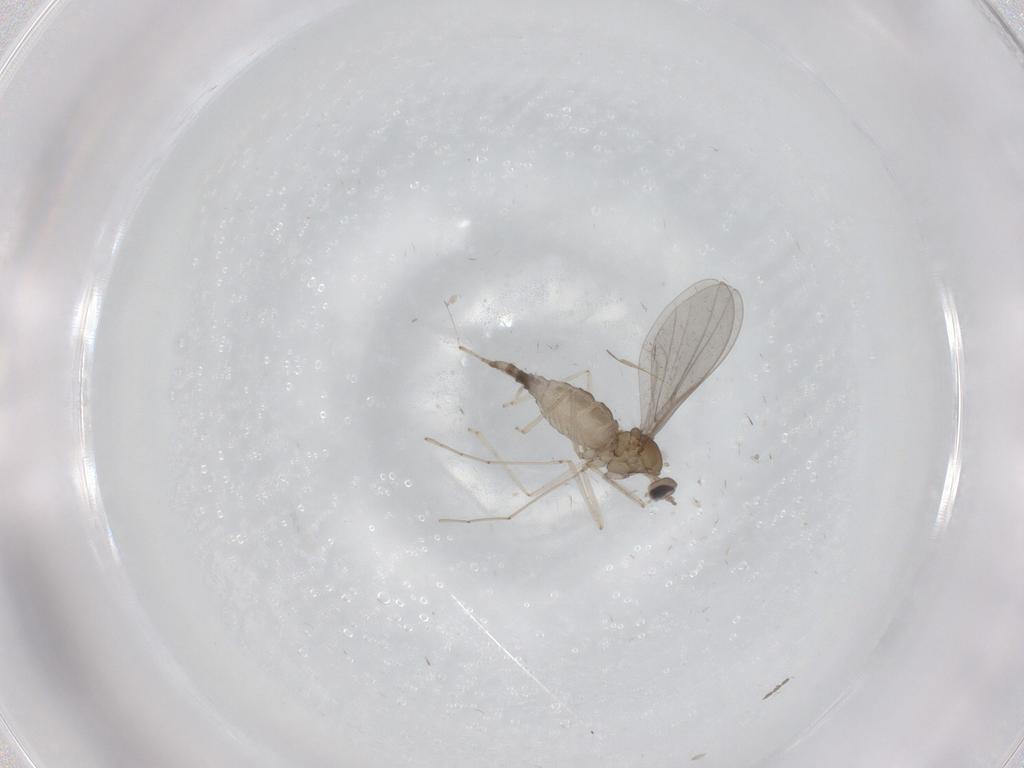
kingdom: Animalia
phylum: Arthropoda
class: Insecta
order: Diptera
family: Cecidomyiidae
